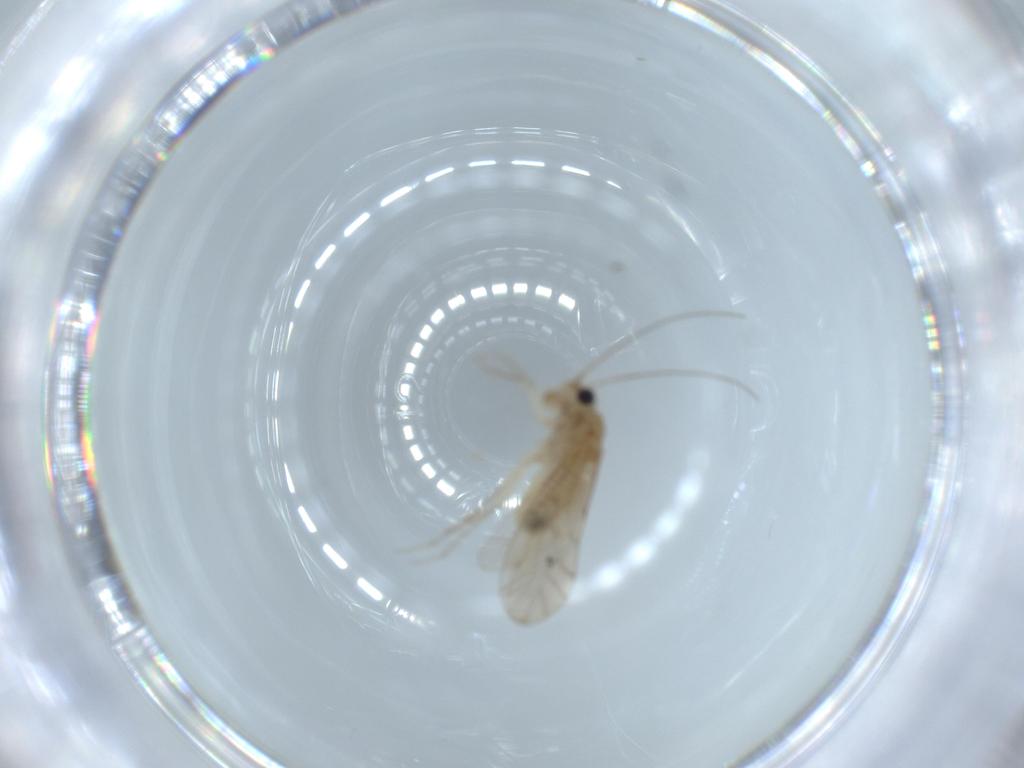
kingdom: Animalia
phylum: Arthropoda
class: Insecta
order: Psocodea
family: Lachesillidae
